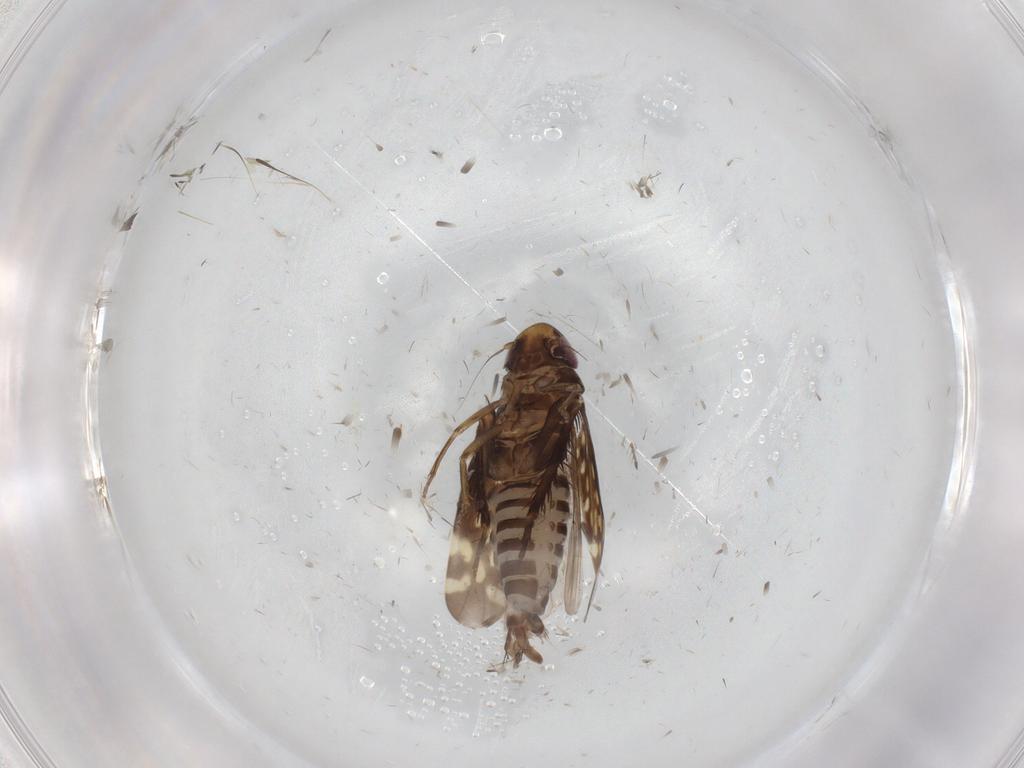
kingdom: Animalia
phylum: Arthropoda
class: Insecta
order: Hemiptera
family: Cicadellidae
